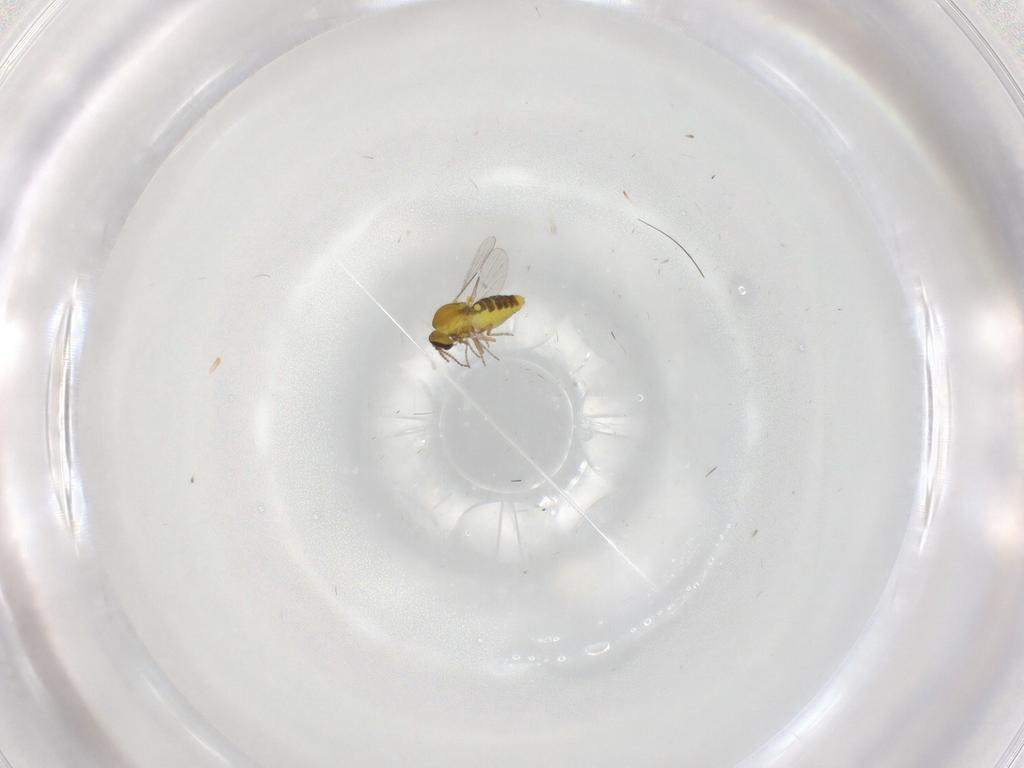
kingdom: Animalia
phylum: Arthropoda
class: Insecta
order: Diptera
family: Ceratopogonidae
